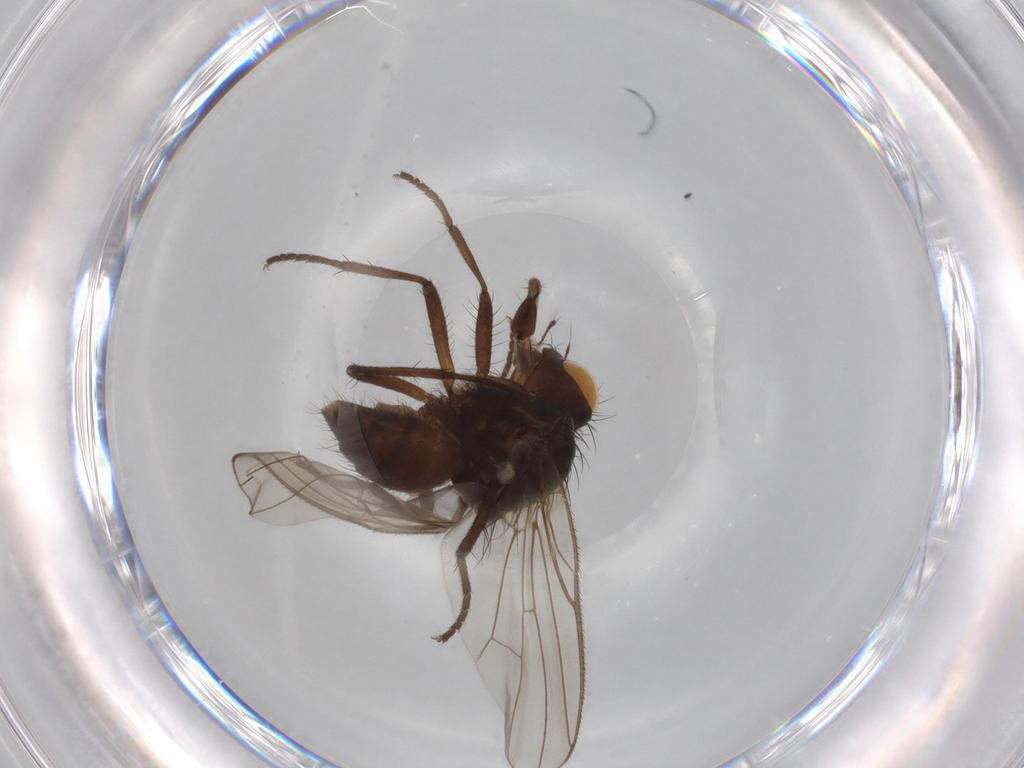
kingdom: Animalia
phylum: Arthropoda
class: Insecta
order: Diptera
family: Anthomyiidae
